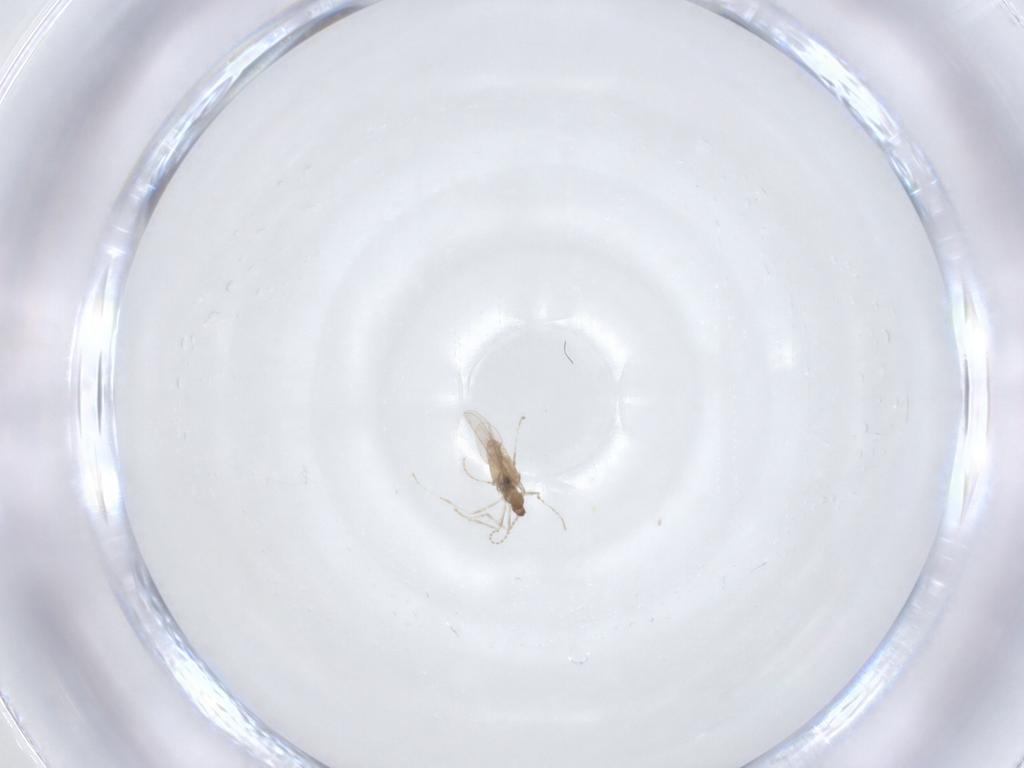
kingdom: Animalia
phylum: Arthropoda
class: Insecta
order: Diptera
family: Cecidomyiidae
